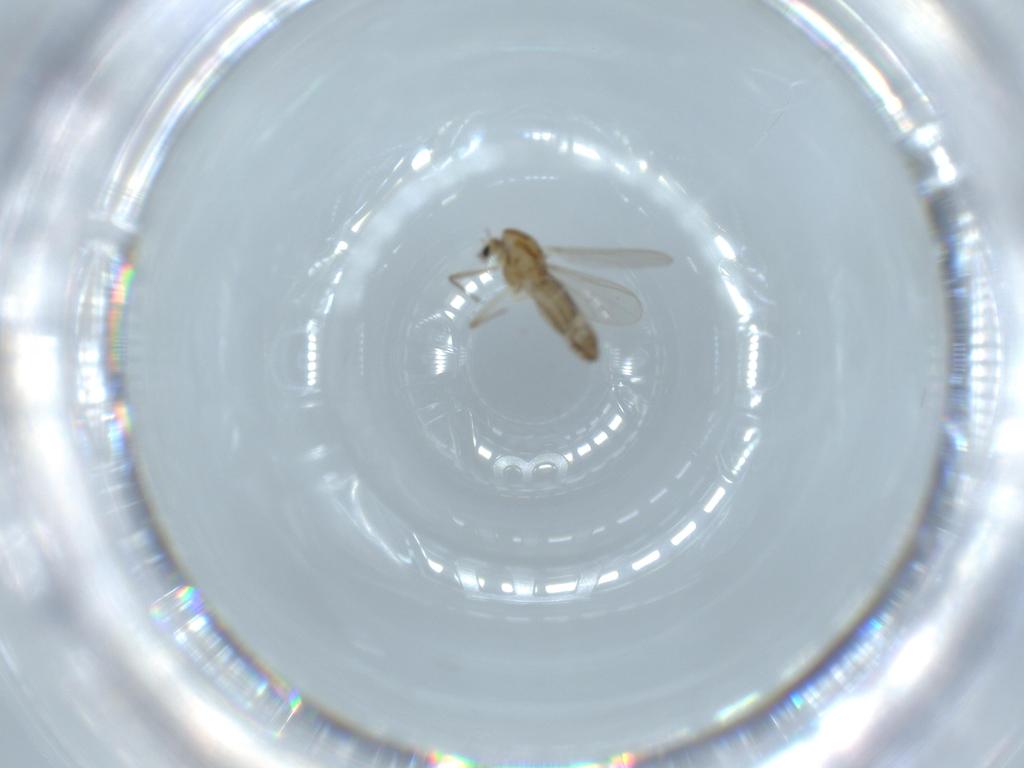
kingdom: Animalia
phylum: Arthropoda
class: Insecta
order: Diptera
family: Chironomidae
